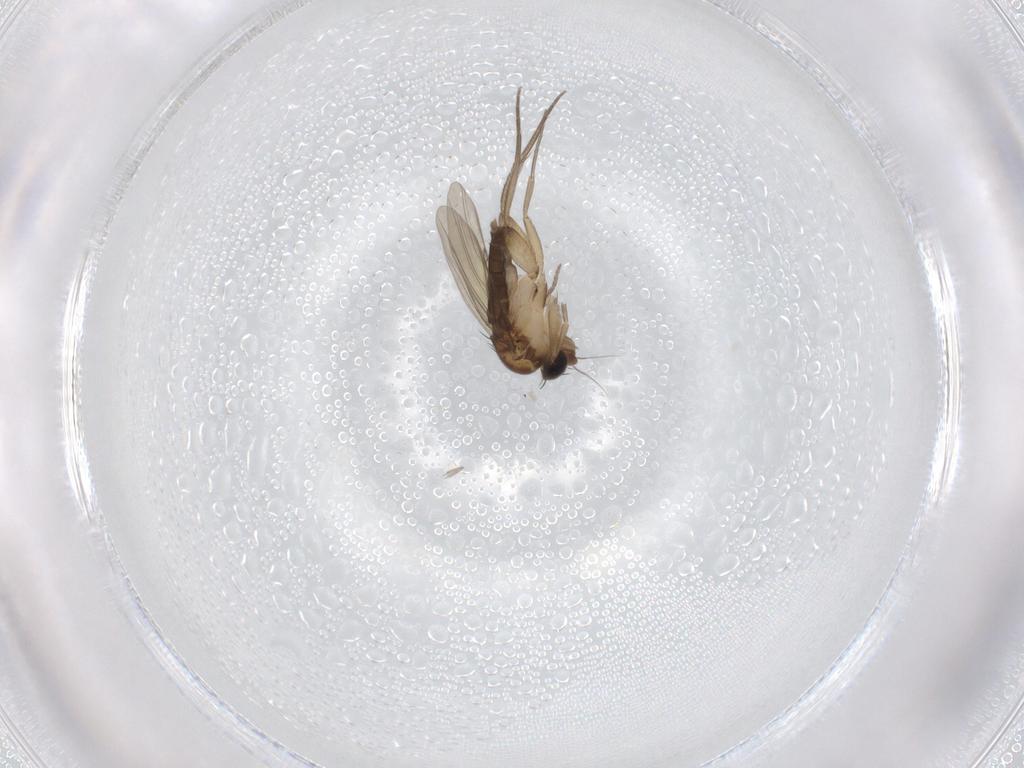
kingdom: Animalia
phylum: Arthropoda
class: Insecta
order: Diptera
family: Phoridae
